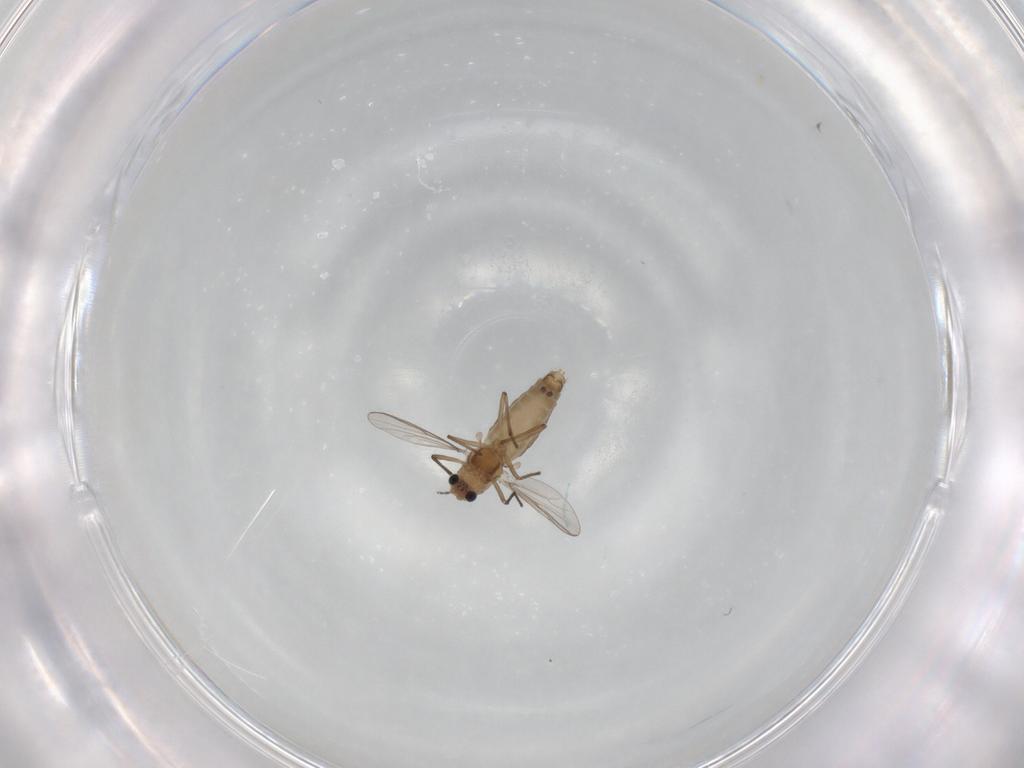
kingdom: Animalia
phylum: Arthropoda
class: Insecta
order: Diptera
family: Chironomidae
